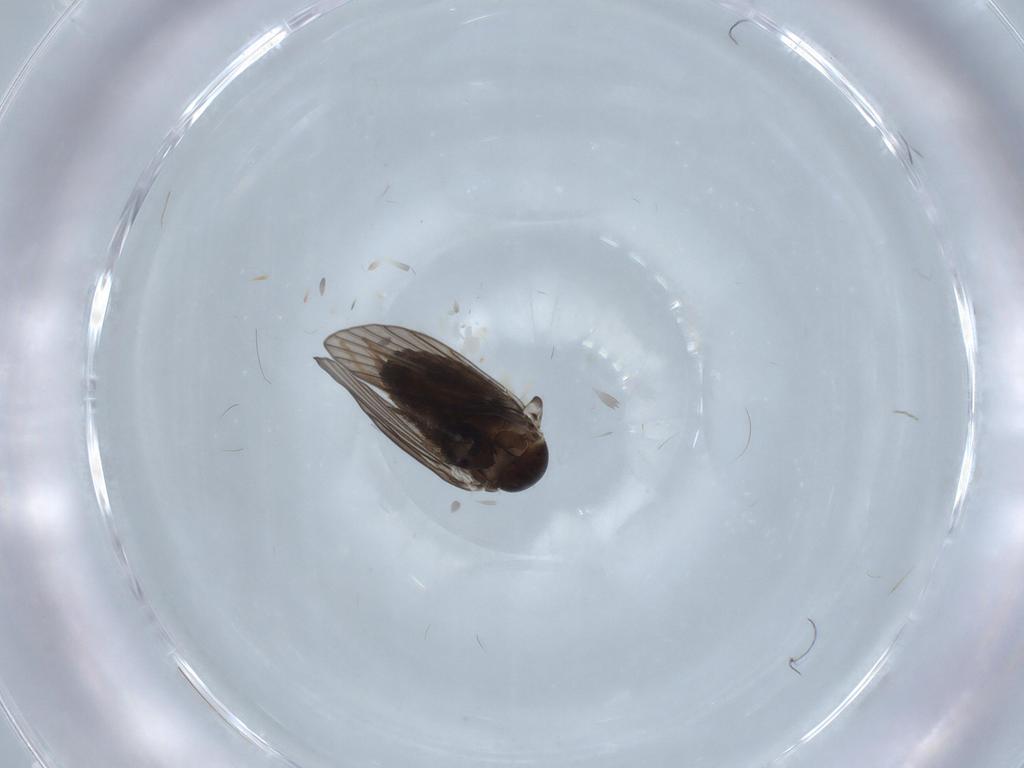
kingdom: Animalia
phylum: Arthropoda
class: Insecta
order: Diptera
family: Psychodidae
